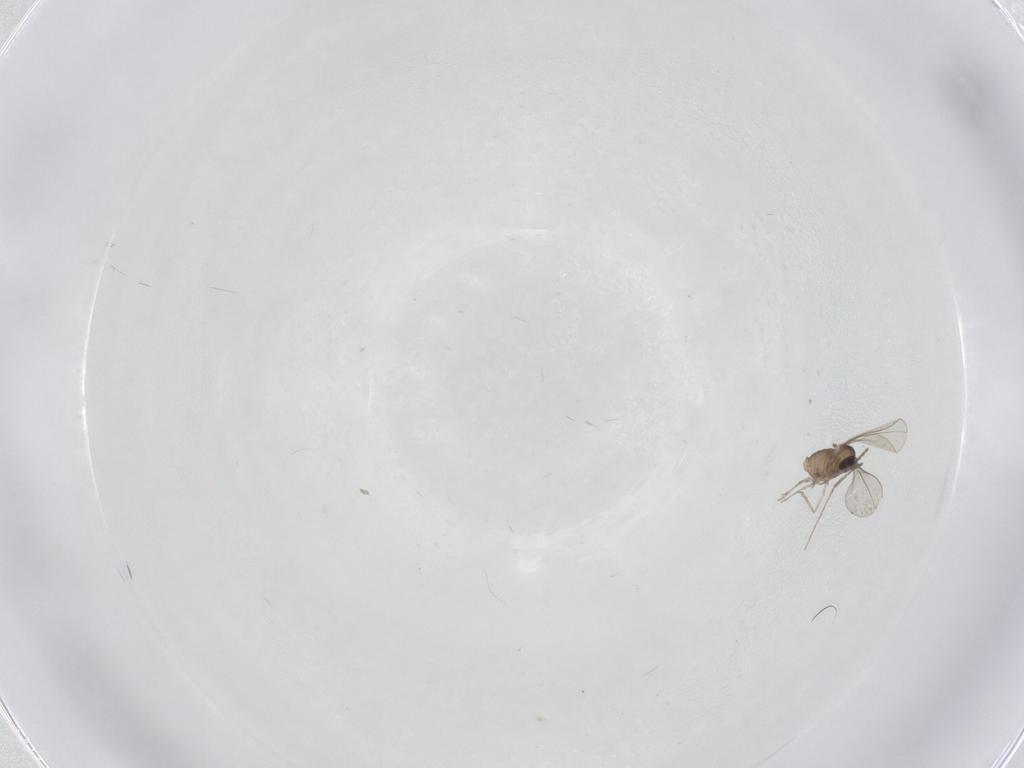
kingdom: Animalia
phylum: Arthropoda
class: Insecta
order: Diptera
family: Cecidomyiidae
